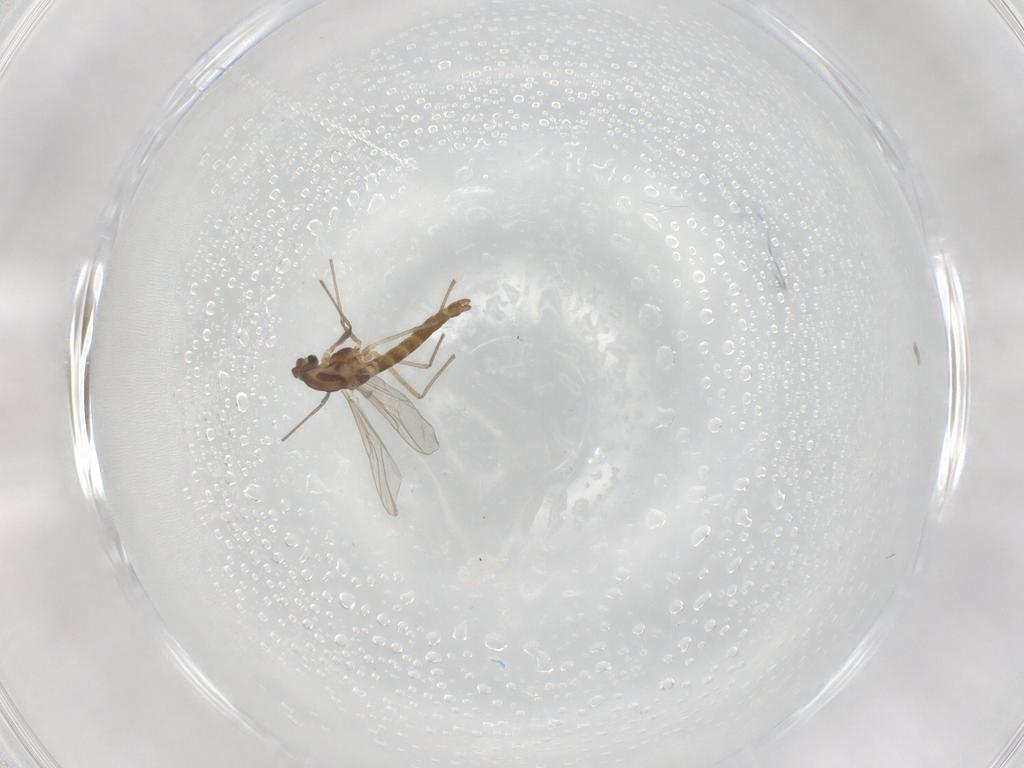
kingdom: Animalia
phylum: Arthropoda
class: Insecta
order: Diptera
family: Chironomidae
